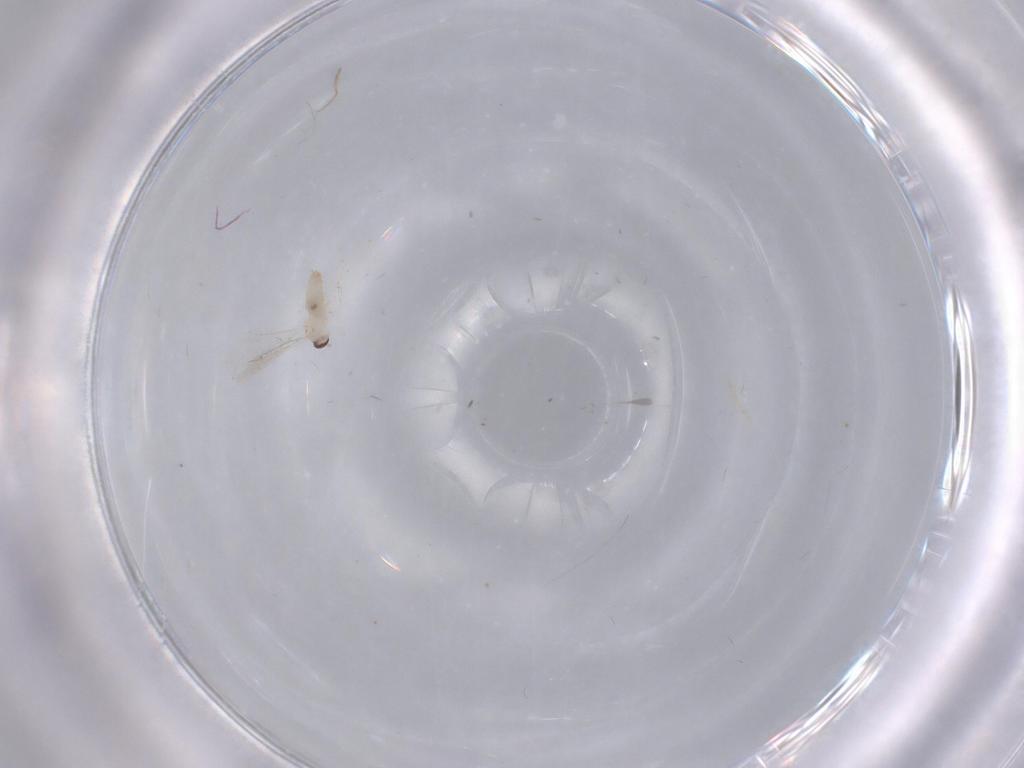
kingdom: Animalia
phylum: Arthropoda
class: Insecta
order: Diptera
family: Cecidomyiidae
